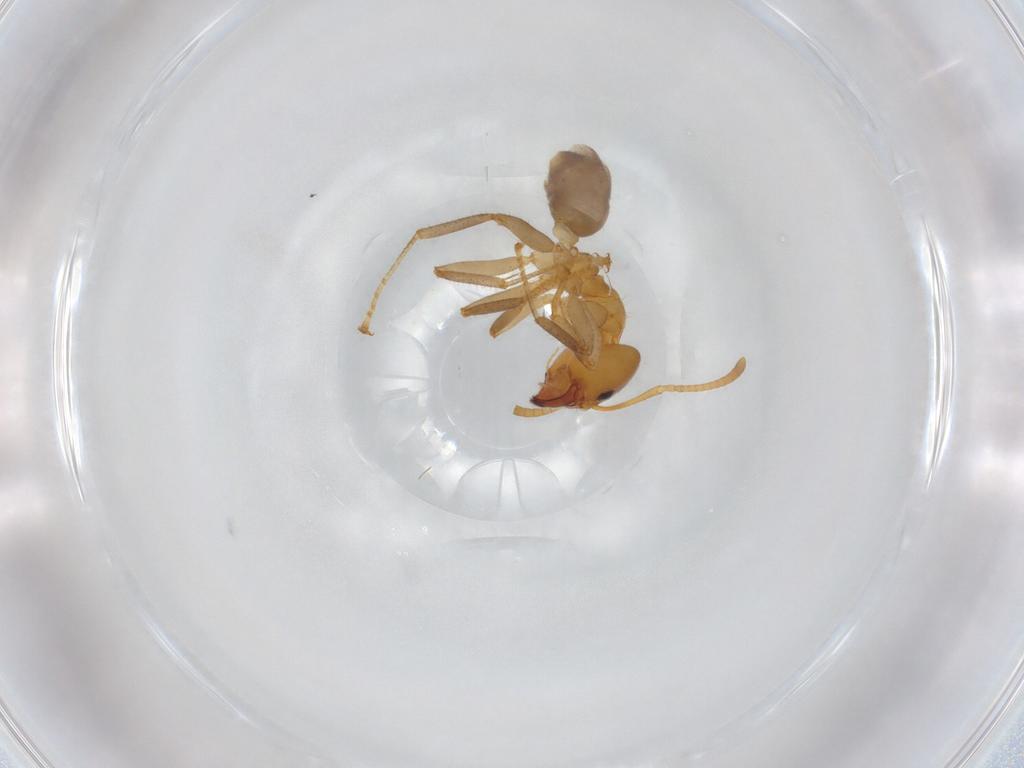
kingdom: Animalia
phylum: Arthropoda
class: Insecta
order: Hymenoptera
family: Formicidae
